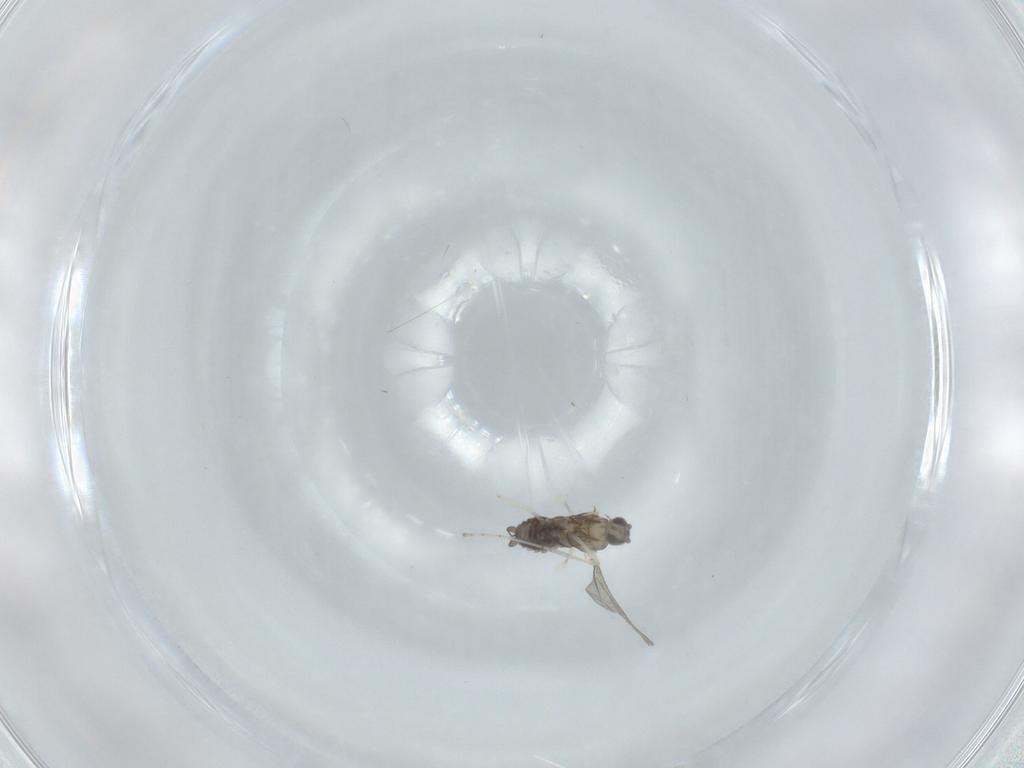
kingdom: Animalia
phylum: Arthropoda
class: Insecta
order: Diptera
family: Cecidomyiidae
